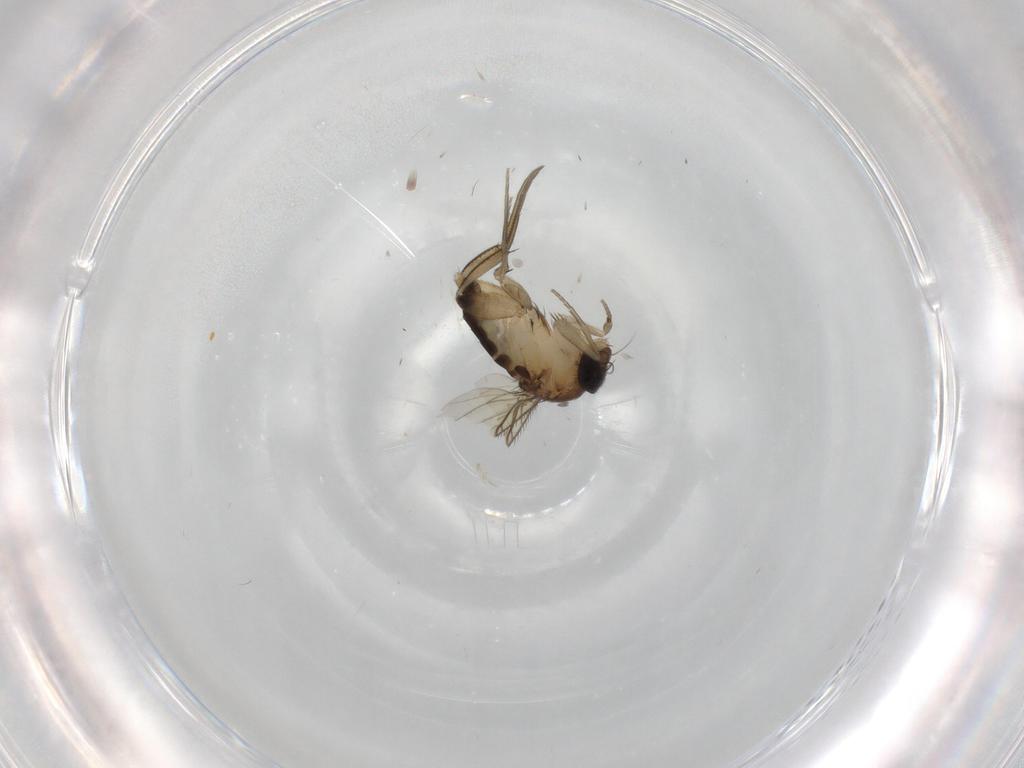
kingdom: Animalia
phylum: Arthropoda
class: Insecta
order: Diptera
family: Phoridae
